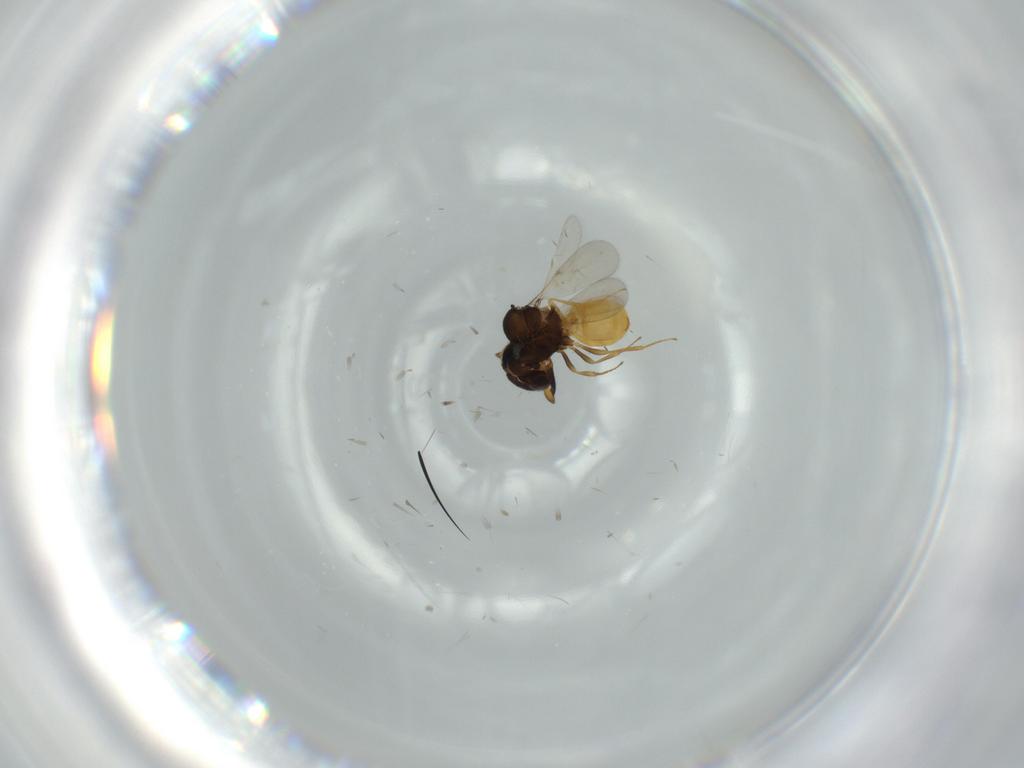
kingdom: Animalia
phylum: Arthropoda
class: Insecta
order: Hymenoptera
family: Scelionidae
